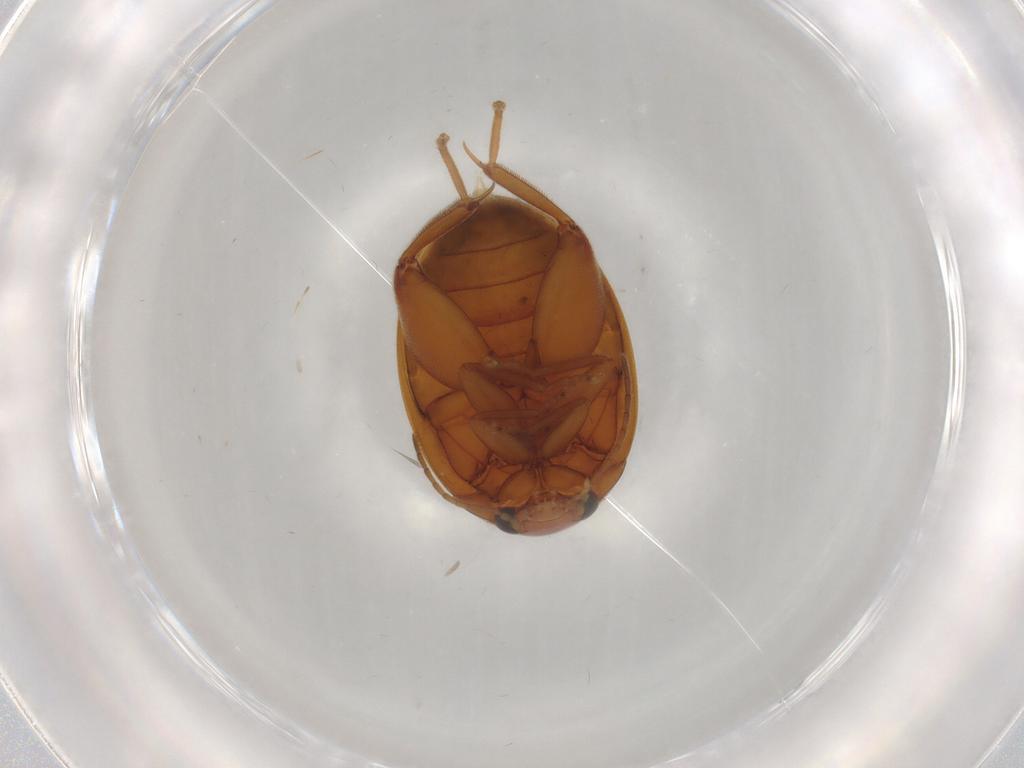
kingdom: Animalia
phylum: Arthropoda
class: Insecta
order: Coleoptera
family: Scirtidae
